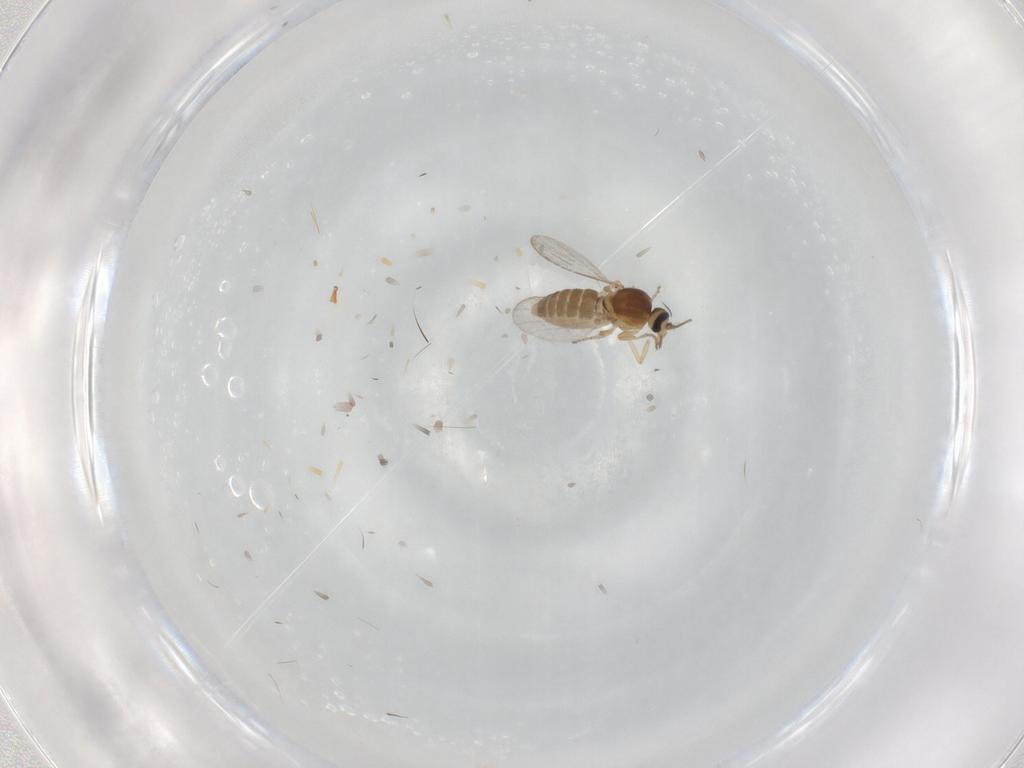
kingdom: Animalia
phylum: Arthropoda
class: Insecta
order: Diptera
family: Ceratopogonidae
